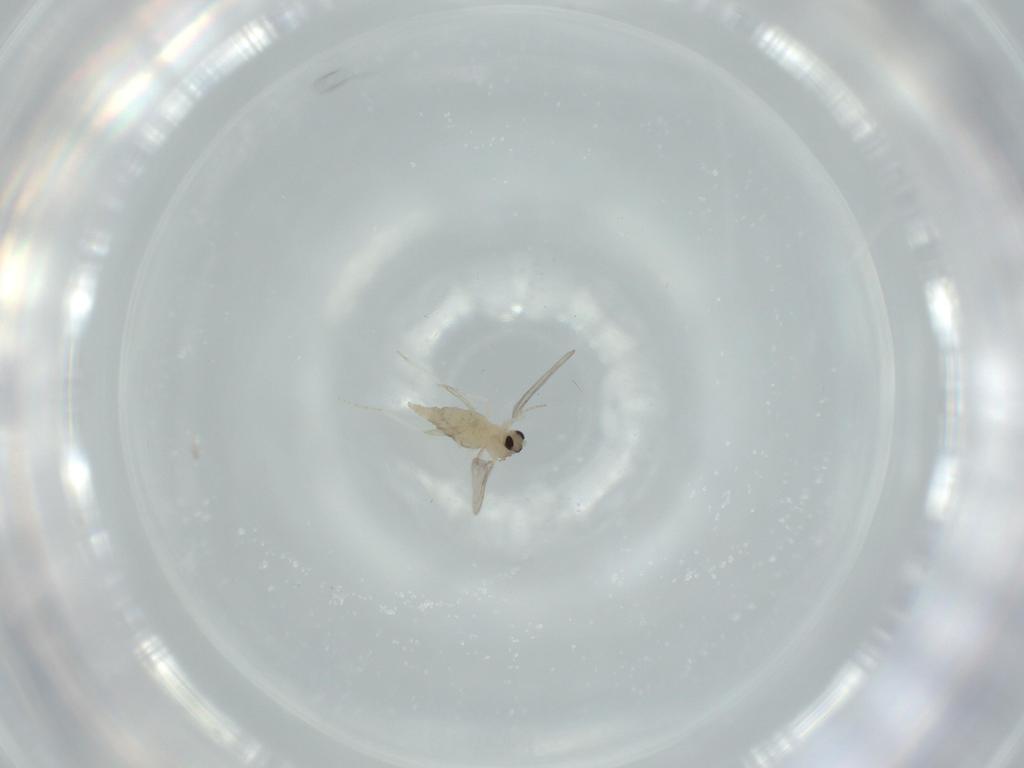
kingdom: Animalia
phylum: Arthropoda
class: Insecta
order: Diptera
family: Cecidomyiidae
